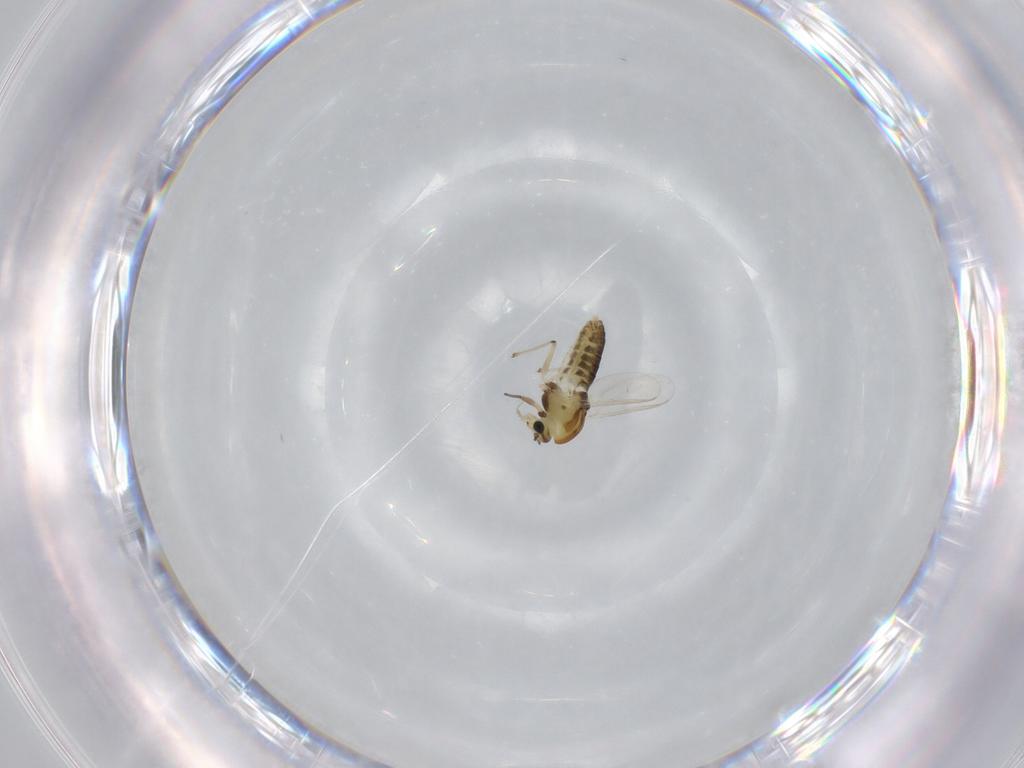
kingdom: Animalia
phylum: Arthropoda
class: Insecta
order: Diptera
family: Chironomidae
